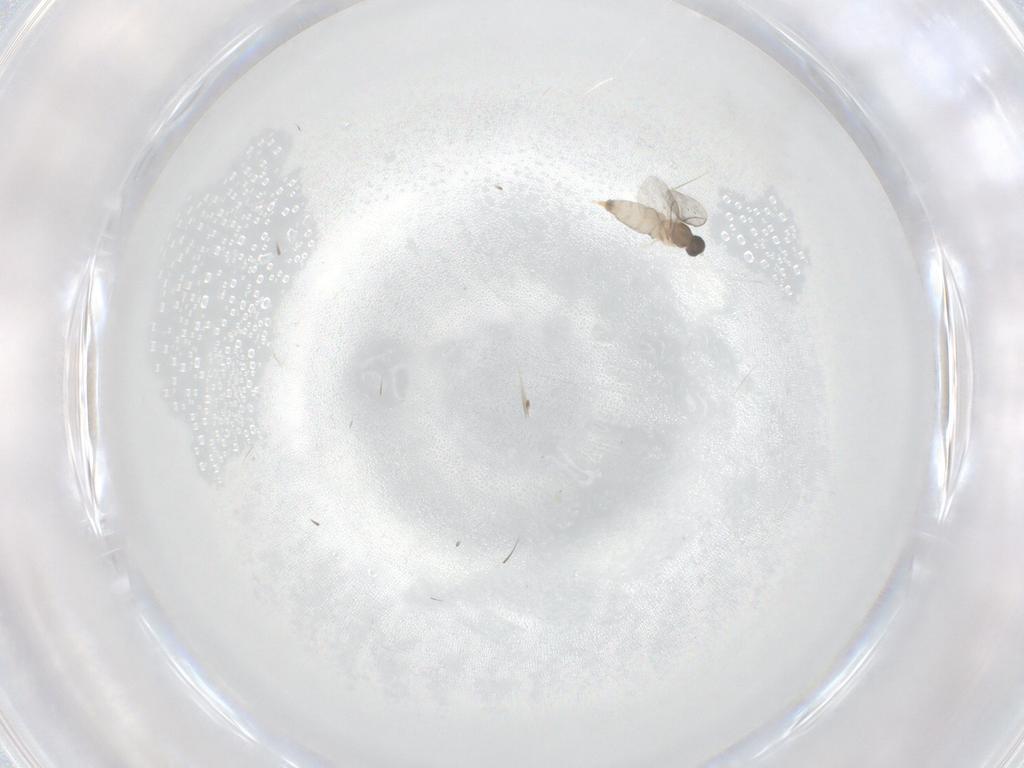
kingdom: Animalia
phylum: Arthropoda
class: Insecta
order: Diptera
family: Cecidomyiidae
